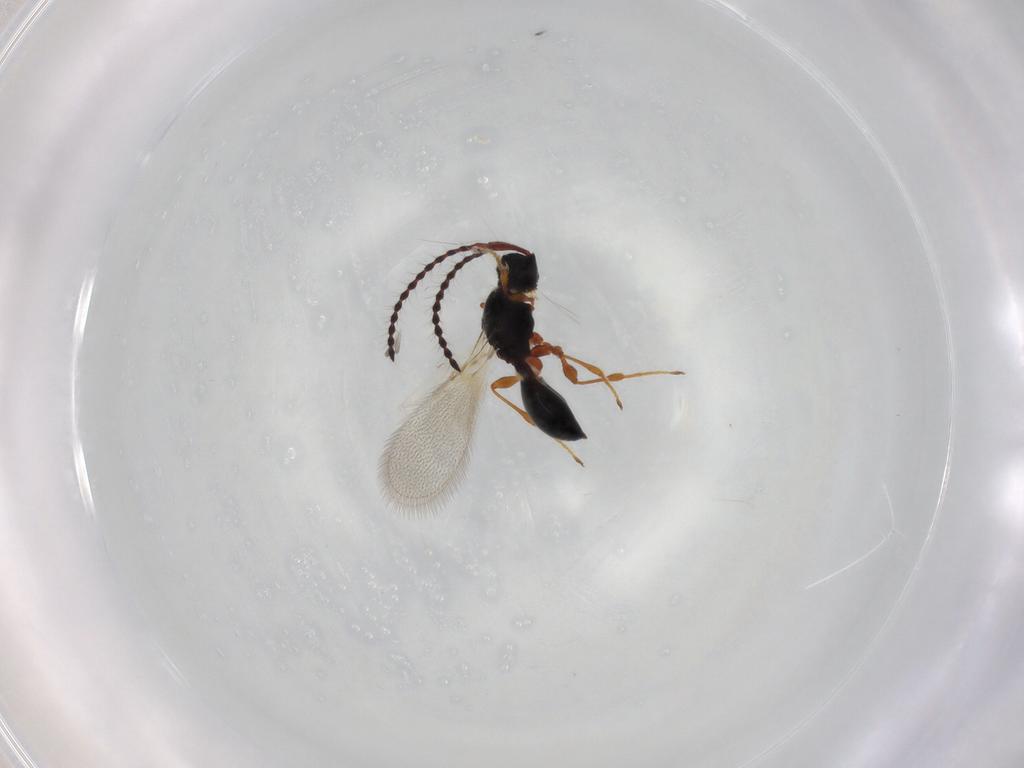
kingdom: Animalia
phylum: Arthropoda
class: Insecta
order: Hymenoptera
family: Diapriidae
